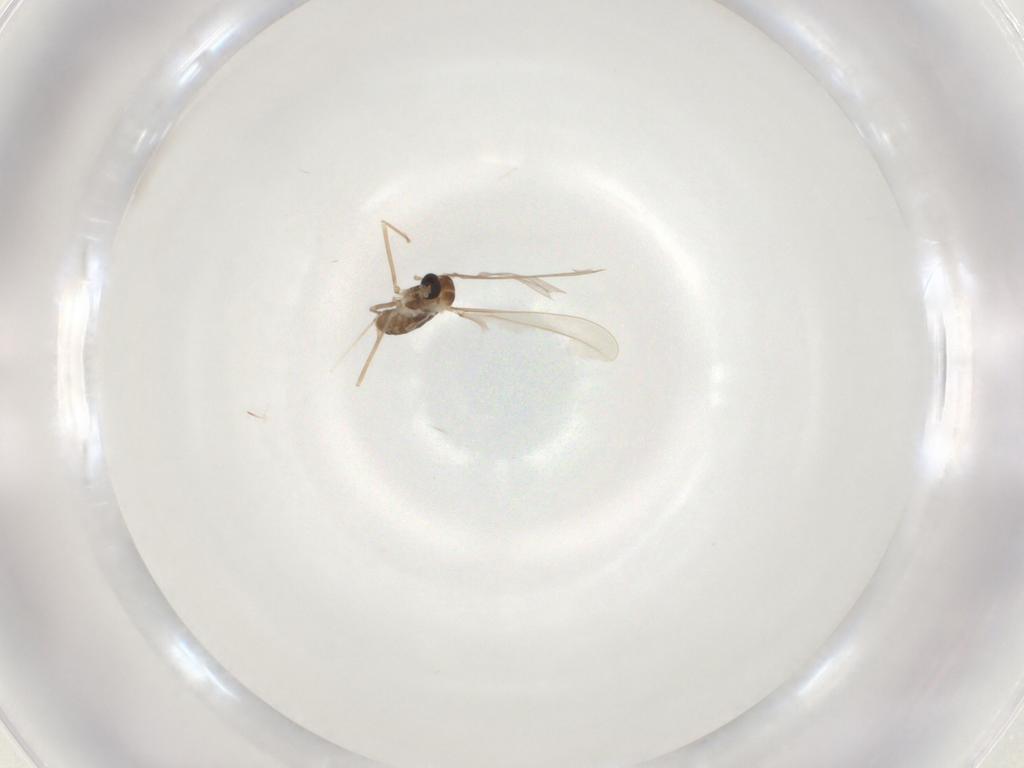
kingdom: Animalia
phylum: Arthropoda
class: Insecta
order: Diptera
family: Cecidomyiidae
